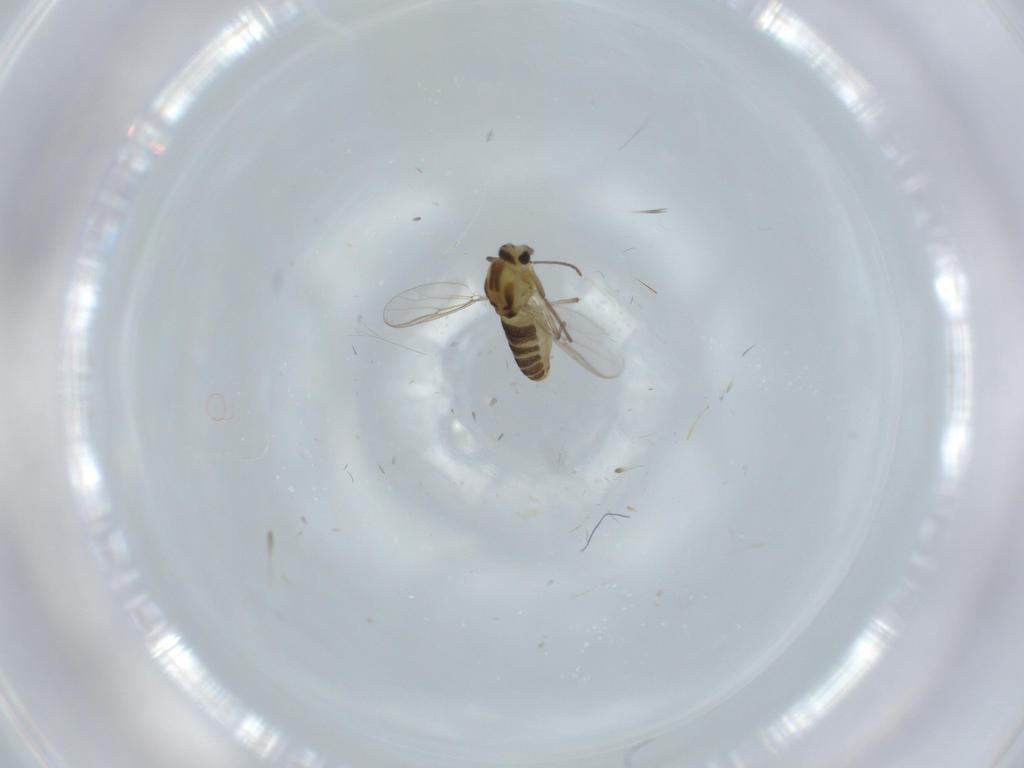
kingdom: Animalia
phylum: Arthropoda
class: Insecta
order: Diptera
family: Chironomidae
